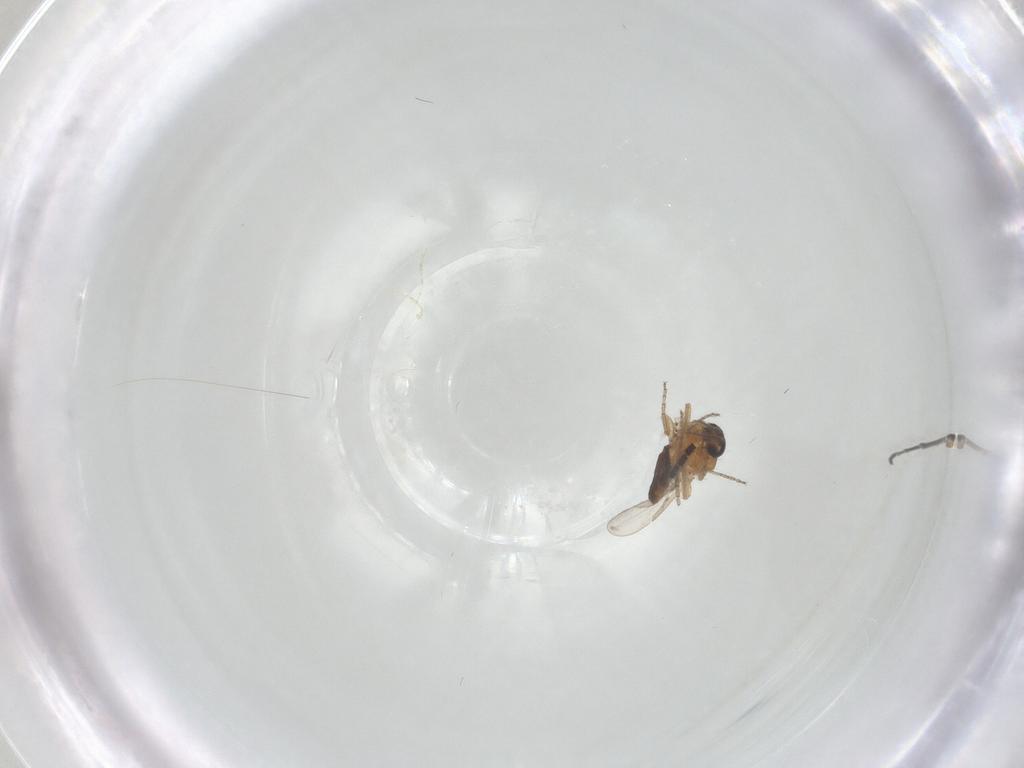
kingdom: Animalia
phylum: Arthropoda
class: Insecta
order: Diptera
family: Ceratopogonidae
